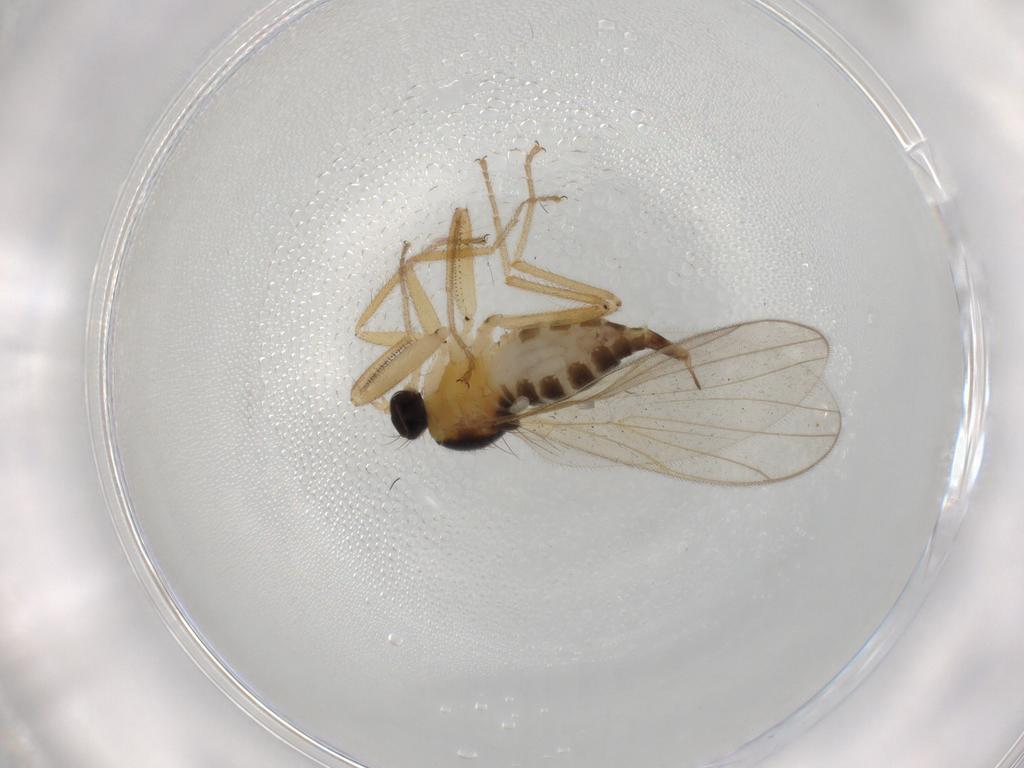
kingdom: Animalia
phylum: Arthropoda
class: Insecta
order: Diptera
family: Hybotidae
